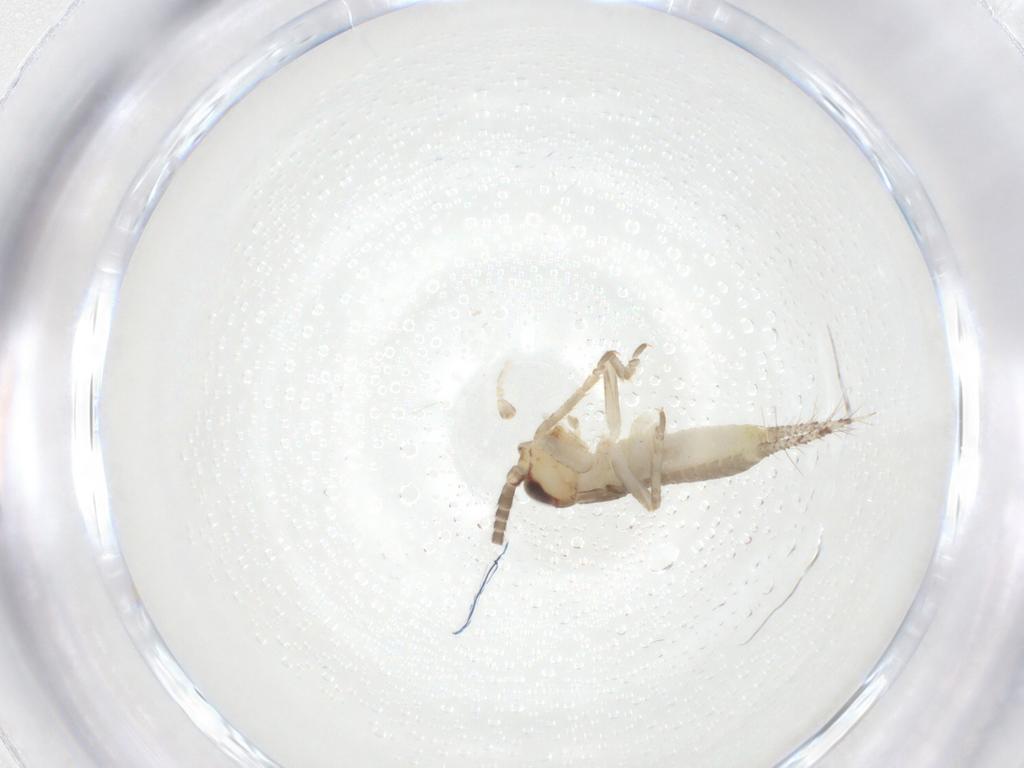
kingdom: Animalia
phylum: Arthropoda
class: Insecta
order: Orthoptera
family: Gryllidae
